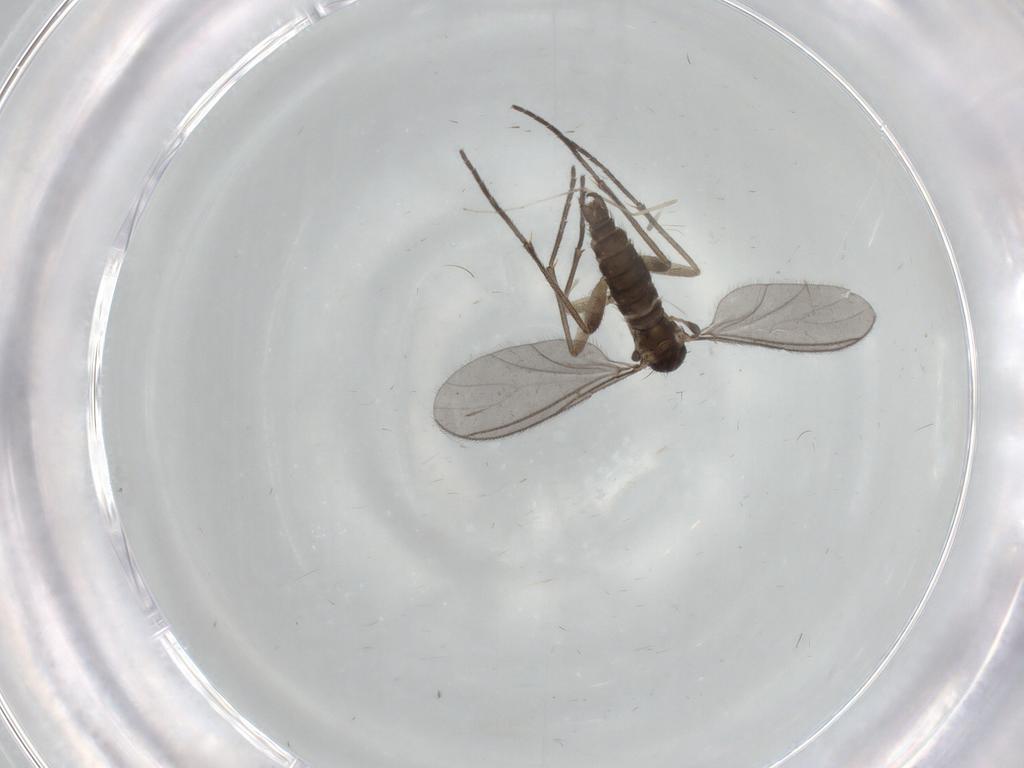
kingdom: Animalia
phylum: Arthropoda
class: Insecta
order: Diptera
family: Sciaridae
